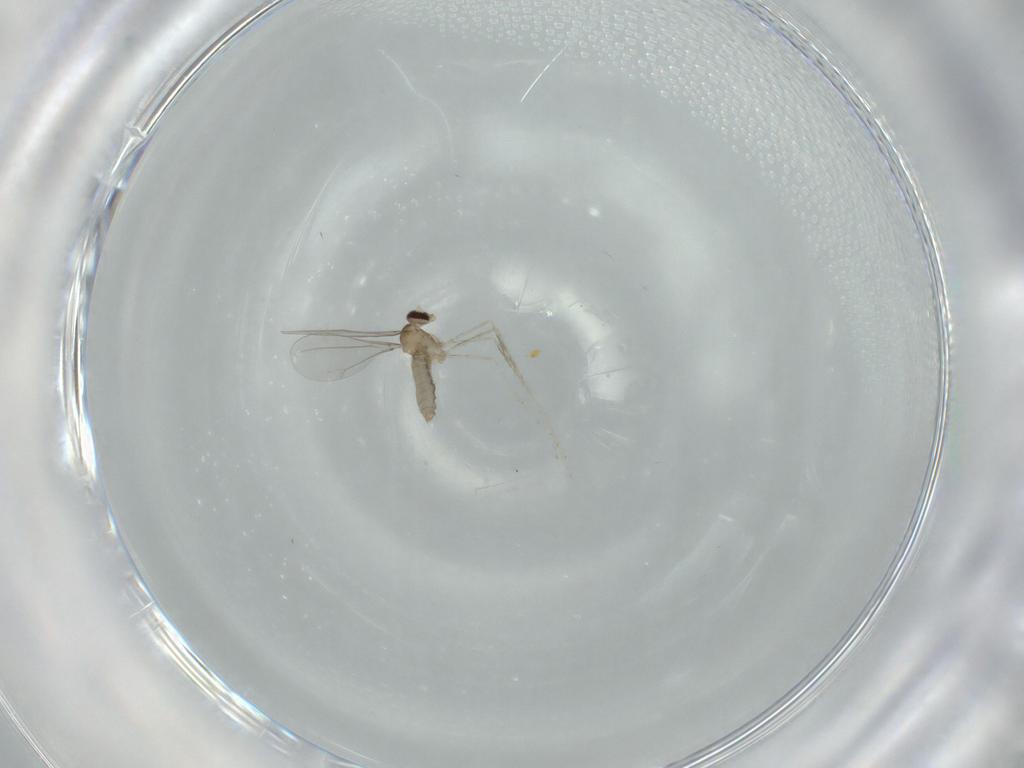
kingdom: Animalia
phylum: Arthropoda
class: Insecta
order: Diptera
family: Cecidomyiidae
